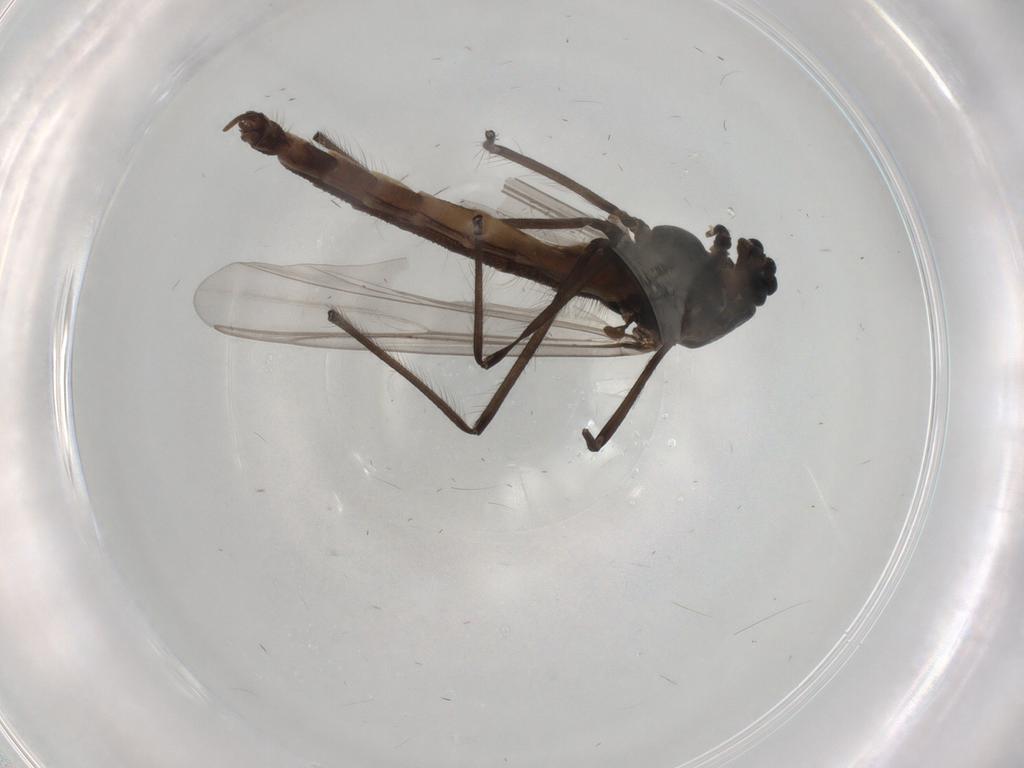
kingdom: Animalia
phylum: Arthropoda
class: Insecta
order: Diptera
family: Chironomidae
